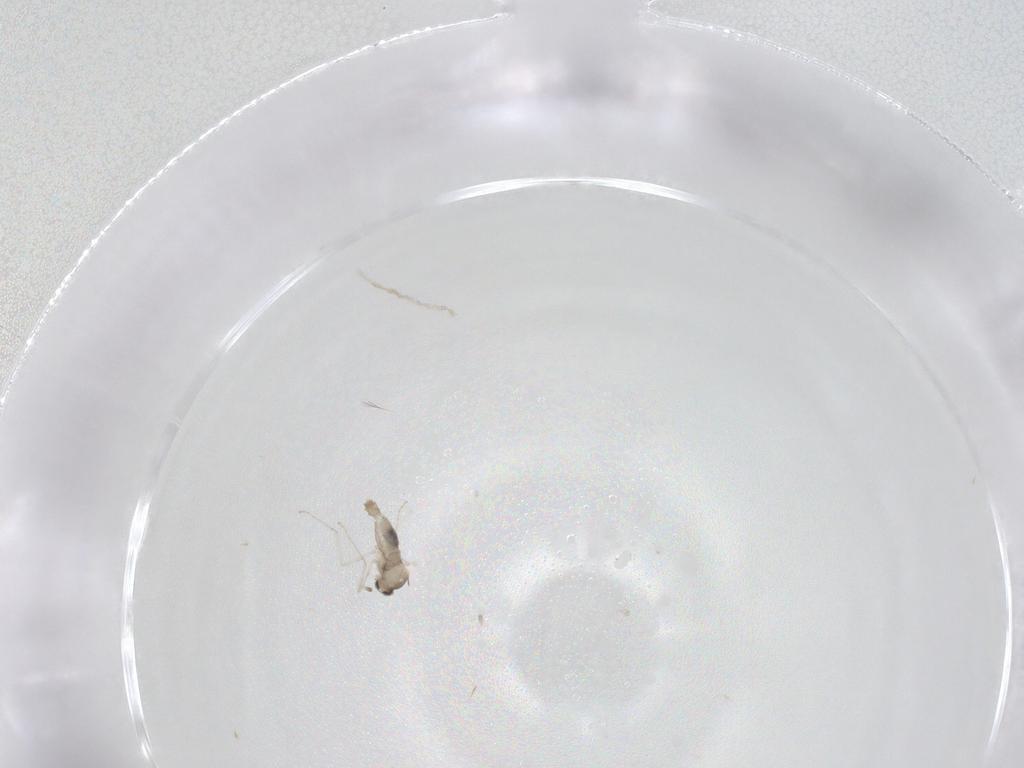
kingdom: Animalia
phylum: Arthropoda
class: Insecta
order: Diptera
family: Cecidomyiidae
